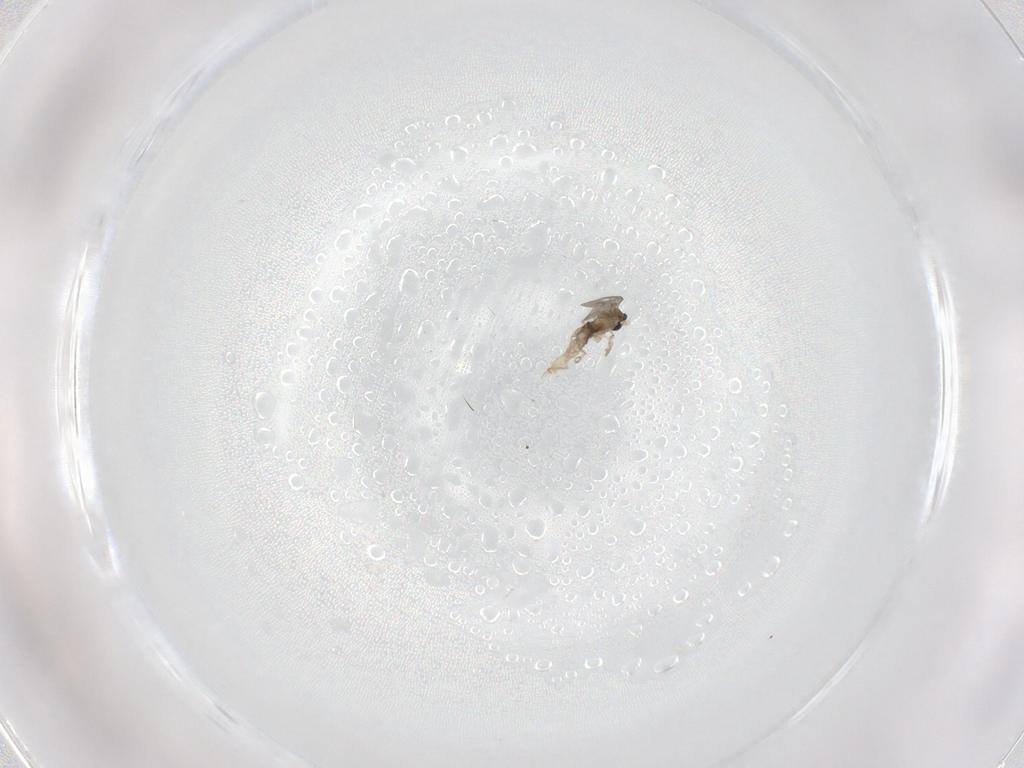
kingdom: Animalia
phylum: Arthropoda
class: Insecta
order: Diptera
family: Cecidomyiidae
